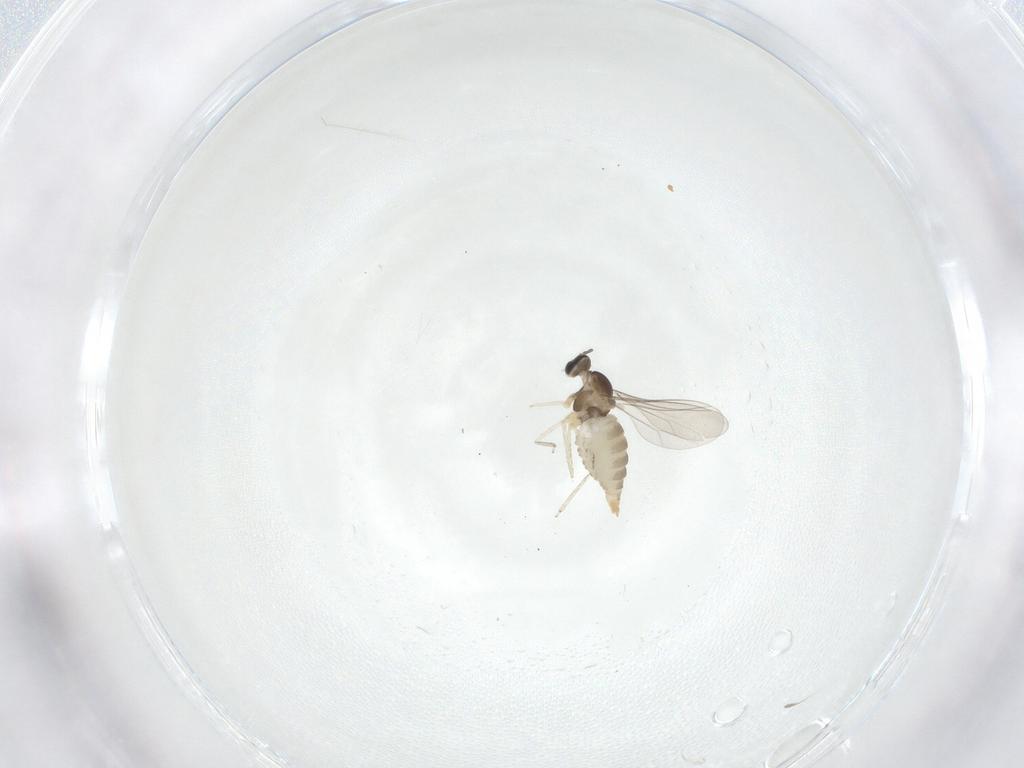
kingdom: Animalia
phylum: Arthropoda
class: Insecta
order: Diptera
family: Cecidomyiidae
